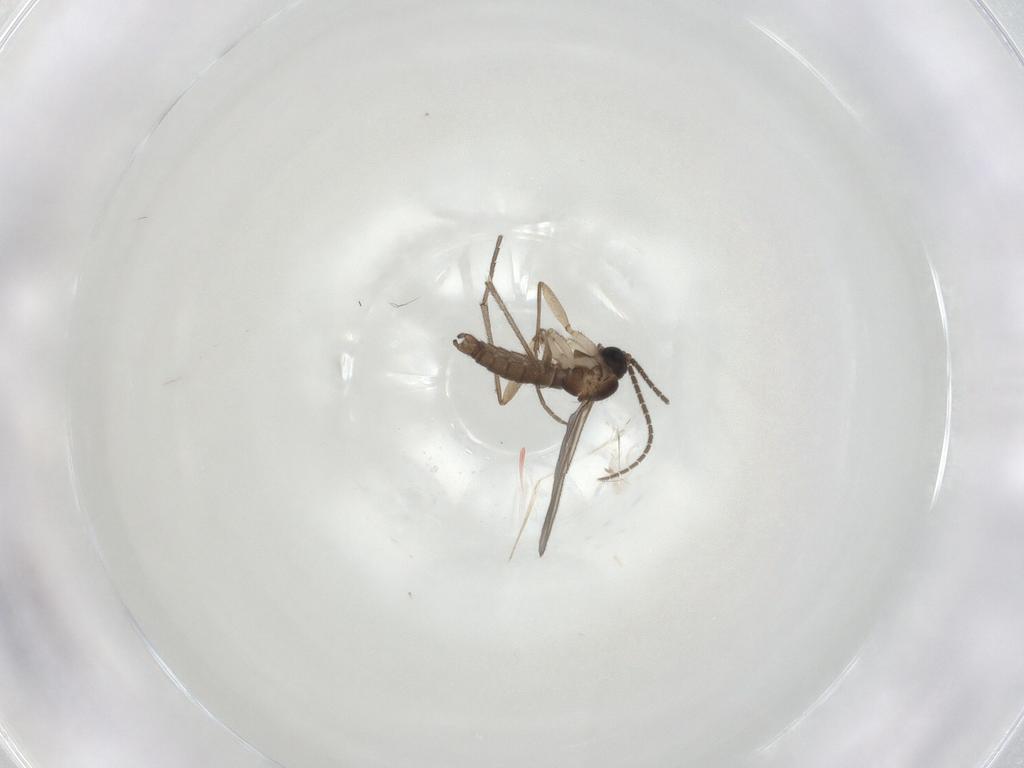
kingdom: Animalia
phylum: Arthropoda
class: Insecta
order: Diptera
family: Sciaridae
